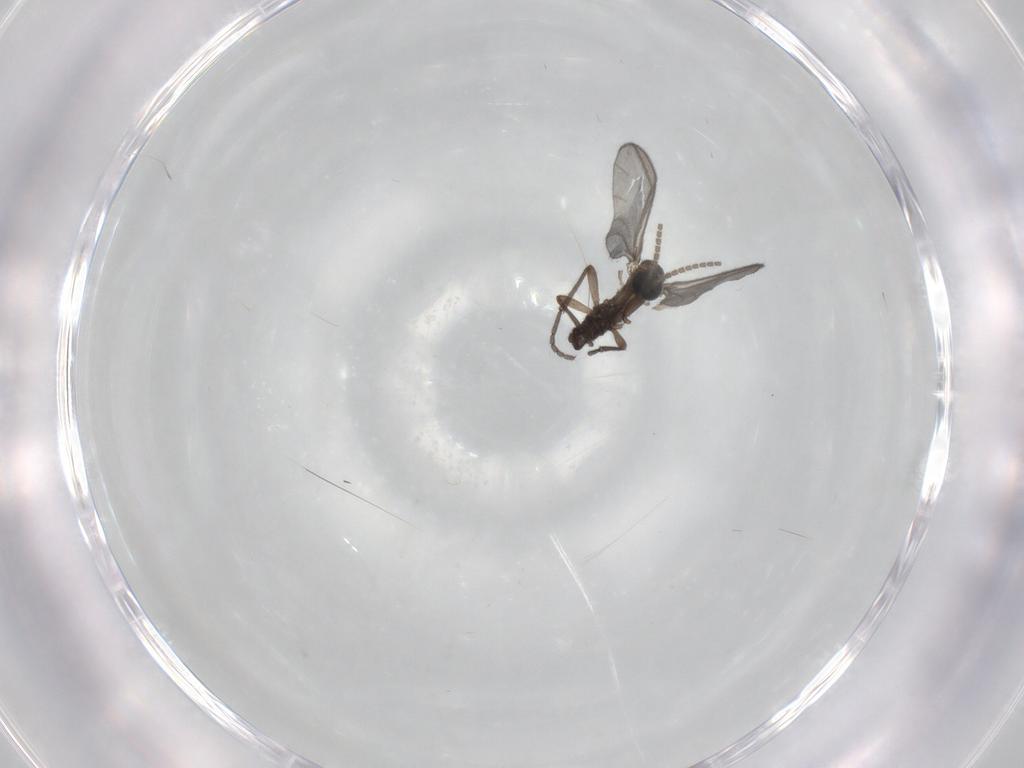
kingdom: Animalia
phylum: Arthropoda
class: Insecta
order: Diptera
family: Sciaridae
